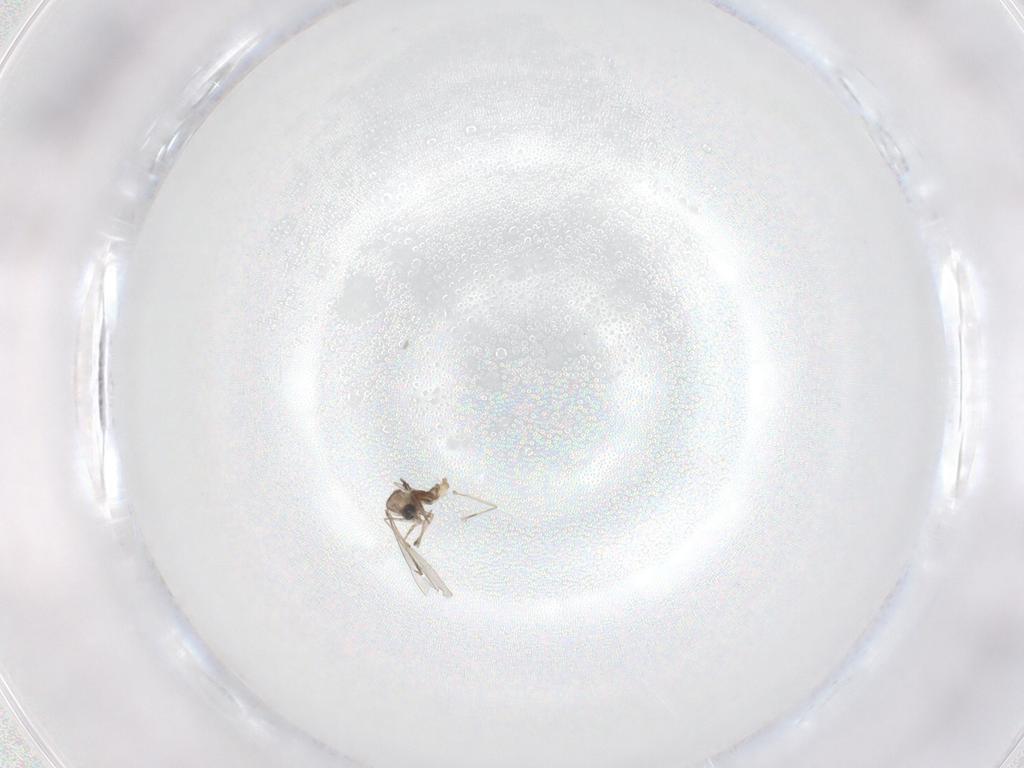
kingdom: Animalia
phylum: Arthropoda
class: Insecta
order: Diptera
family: Cecidomyiidae
